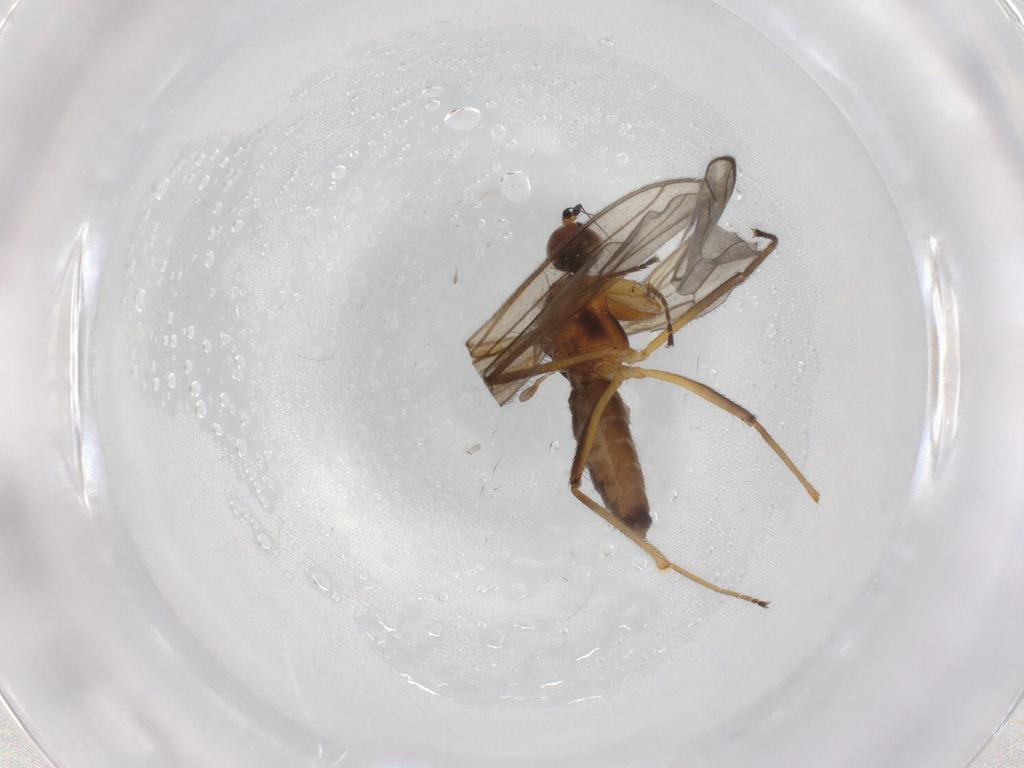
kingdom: Animalia
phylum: Arthropoda
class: Insecta
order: Diptera
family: Empididae
